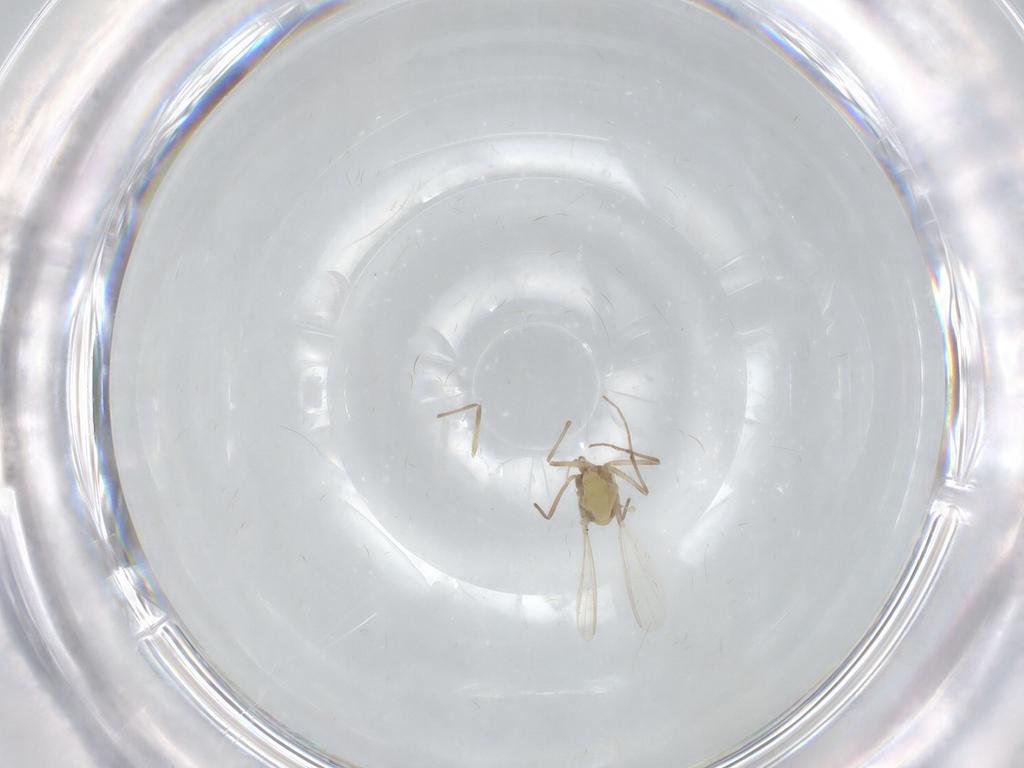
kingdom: Animalia
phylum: Arthropoda
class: Insecta
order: Diptera
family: Chironomidae
